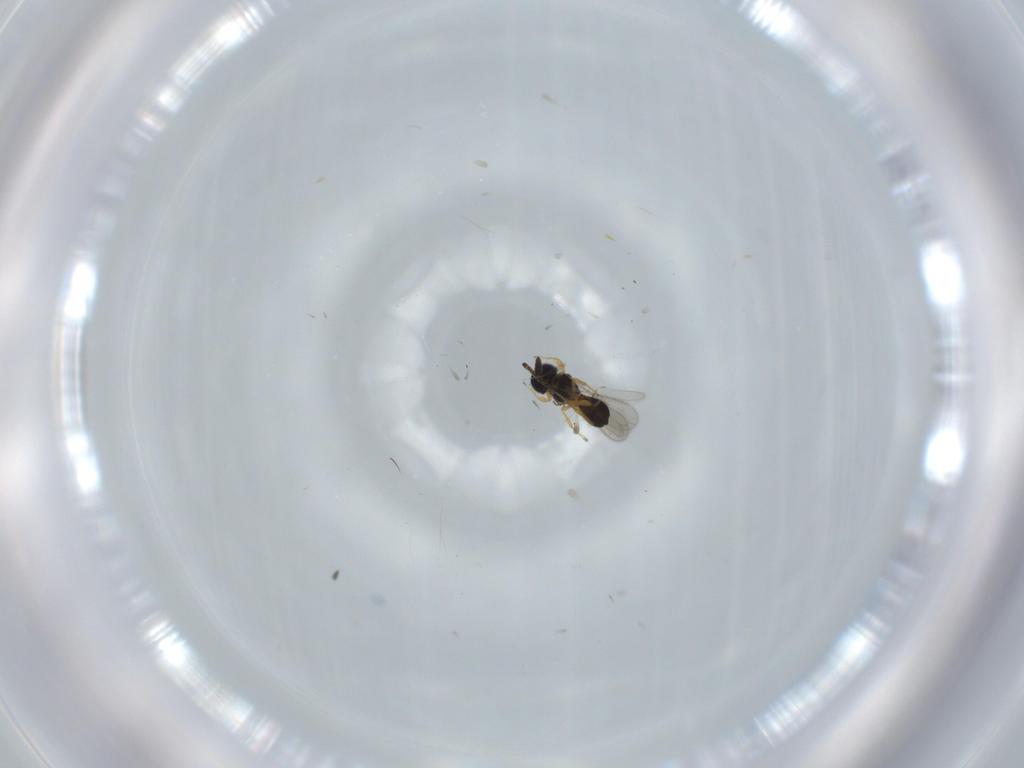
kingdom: Animalia
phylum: Arthropoda
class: Insecta
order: Hymenoptera
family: Scelionidae
